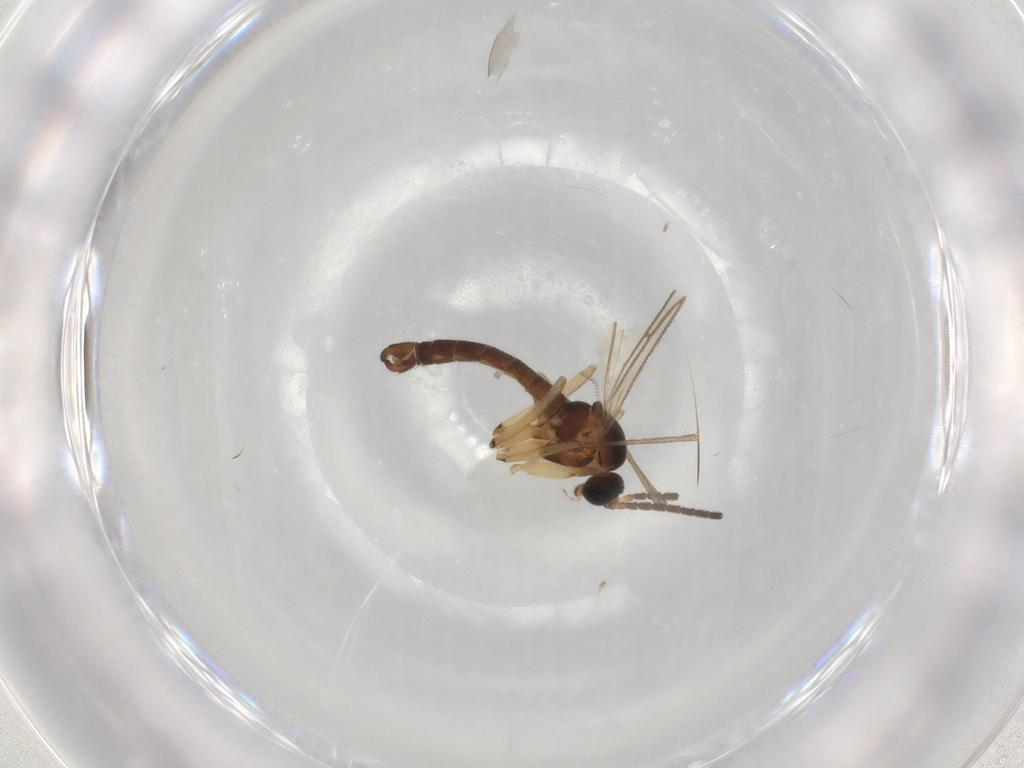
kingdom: Animalia
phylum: Arthropoda
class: Insecta
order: Diptera
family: Sciaridae
